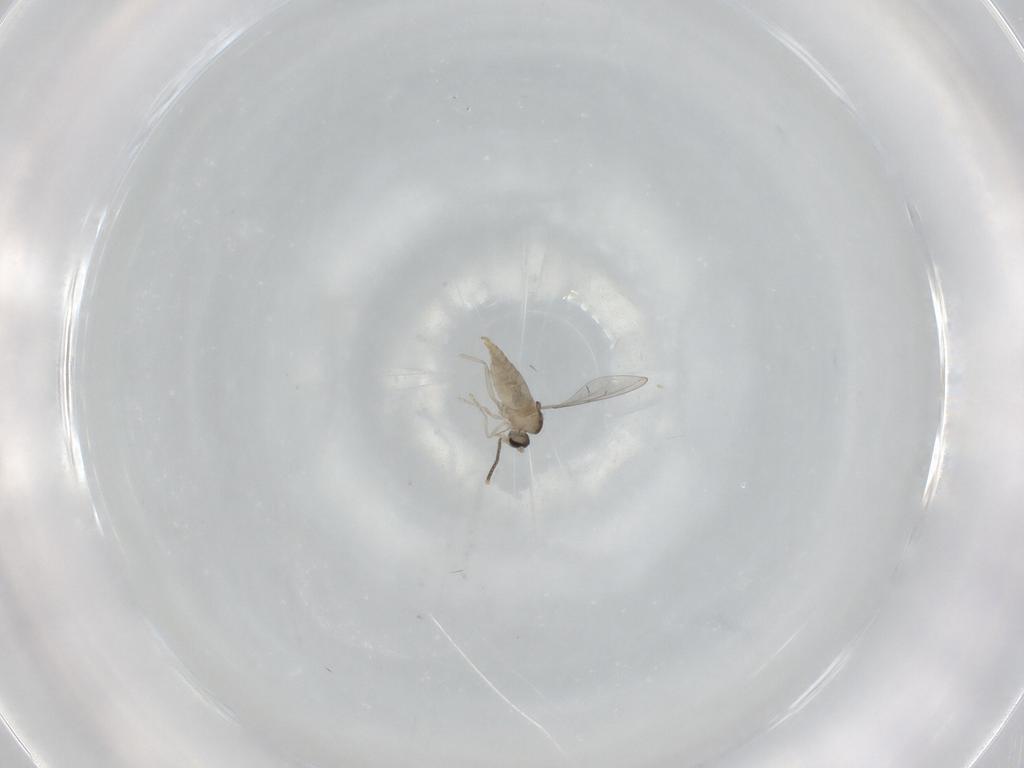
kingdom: Animalia
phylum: Arthropoda
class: Insecta
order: Diptera
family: Cecidomyiidae
